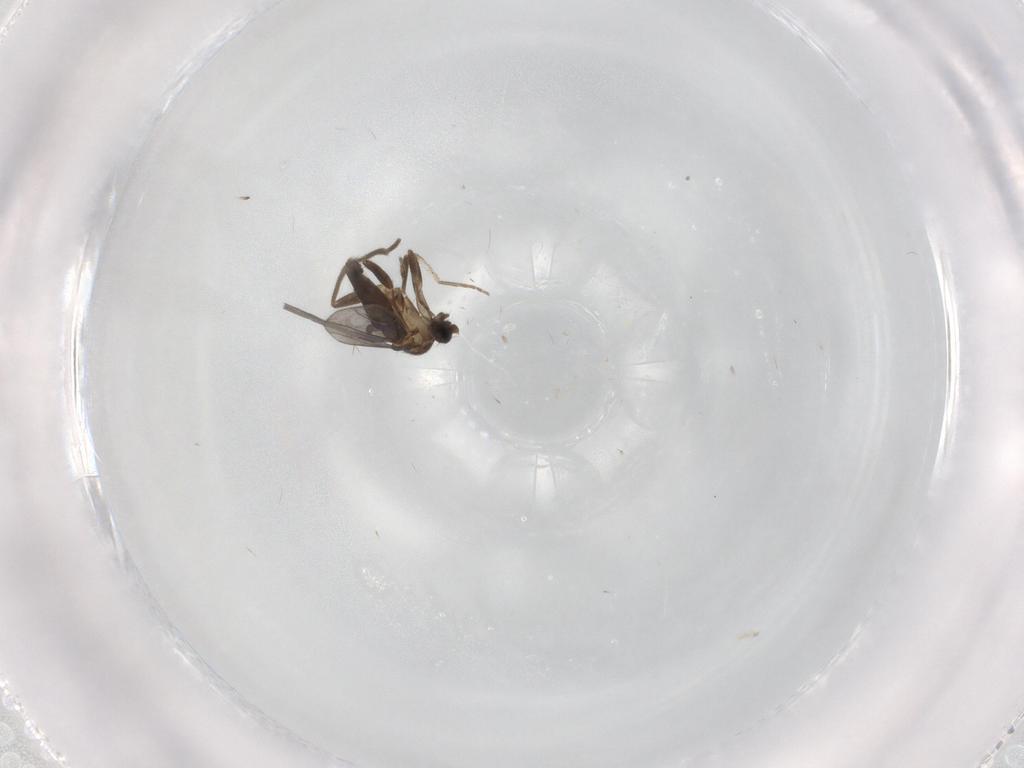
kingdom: Animalia
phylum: Arthropoda
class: Insecta
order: Diptera
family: Phoridae
